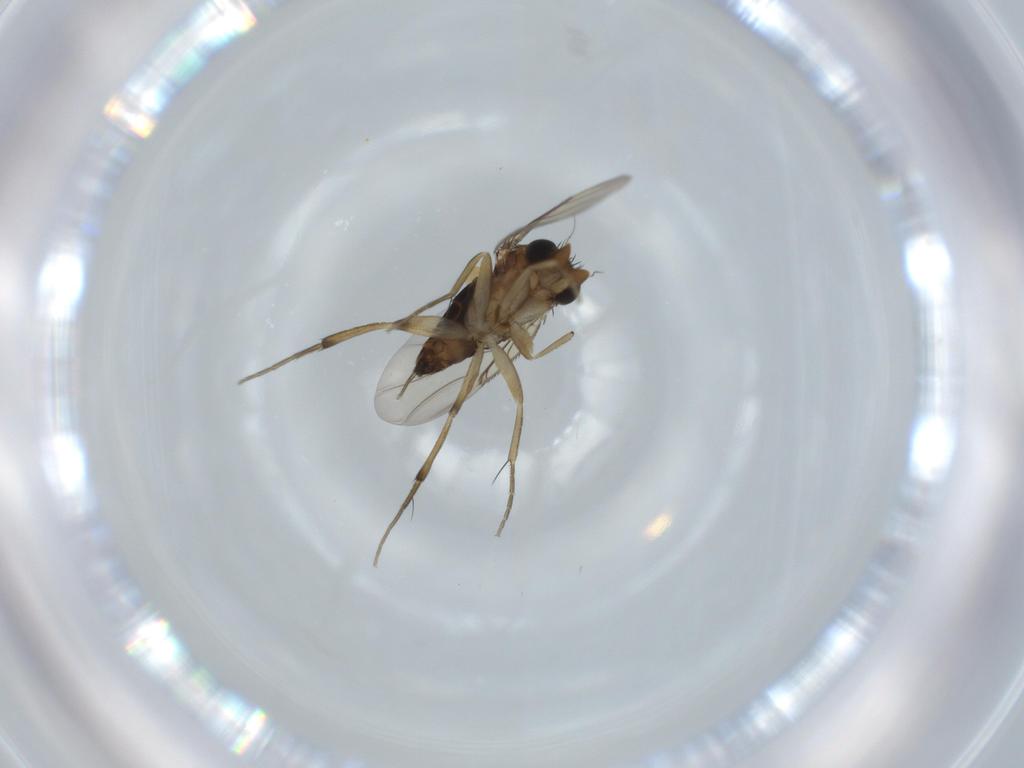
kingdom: Animalia
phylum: Arthropoda
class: Insecta
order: Diptera
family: Phoridae
